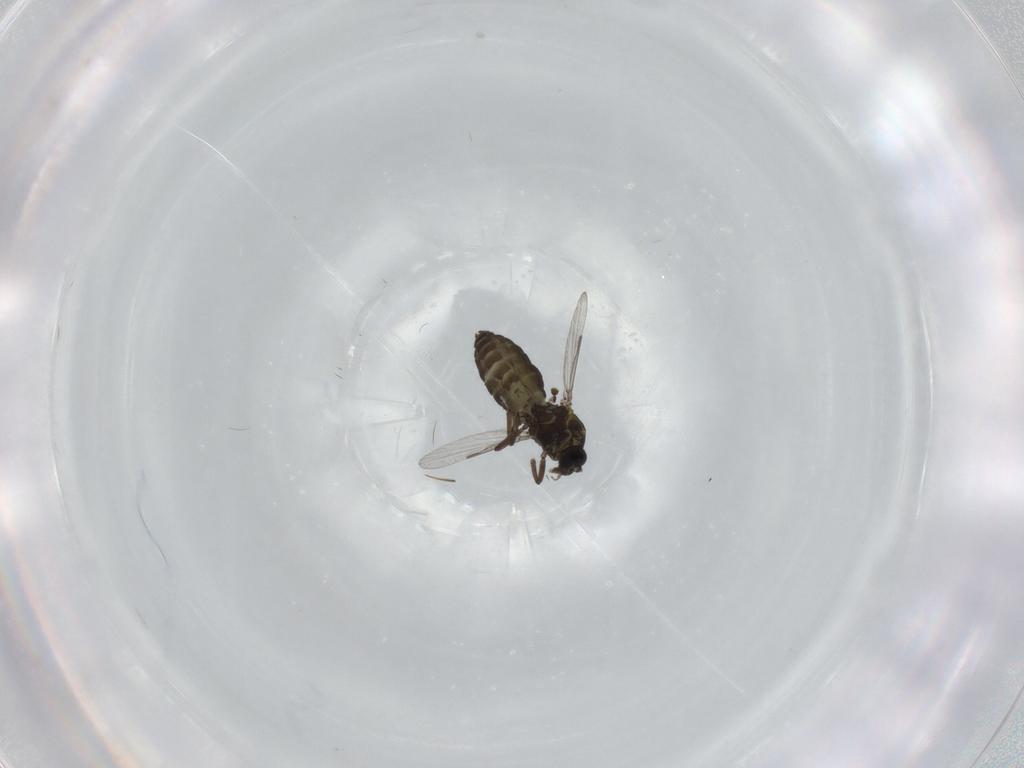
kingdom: Animalia
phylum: Arthropoda
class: Insecta
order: Diptera
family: Ceratopogonidae
